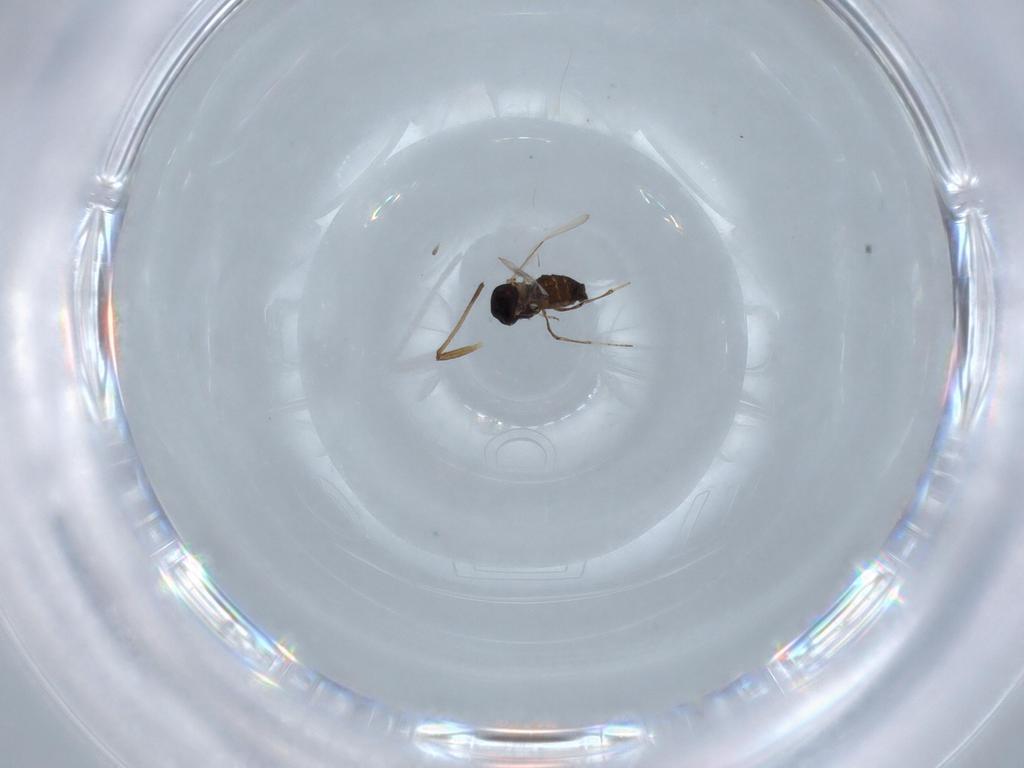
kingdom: Animalia
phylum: Arthropoda
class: Insecta
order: Diptera
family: Ceratopogonidae
